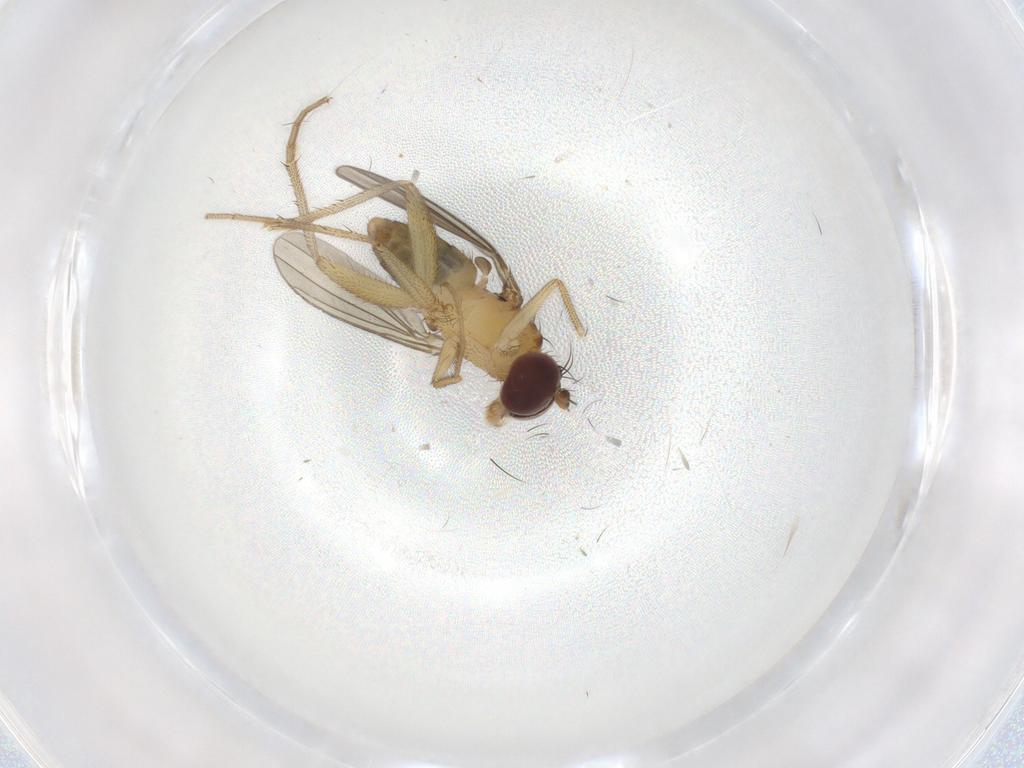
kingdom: Animalia
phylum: Arthropoda
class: Insecta
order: Diptera
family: Dolichopodidae
